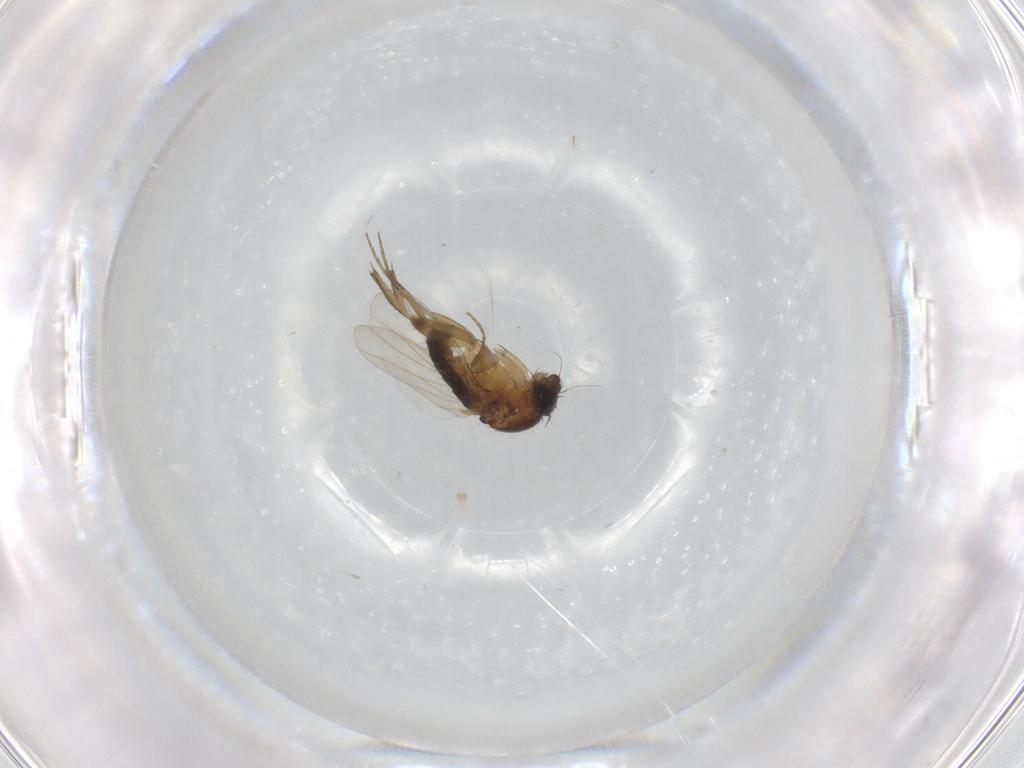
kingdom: Animalia
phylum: Arthropoda
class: Insecta
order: Diptera
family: Phoridae
